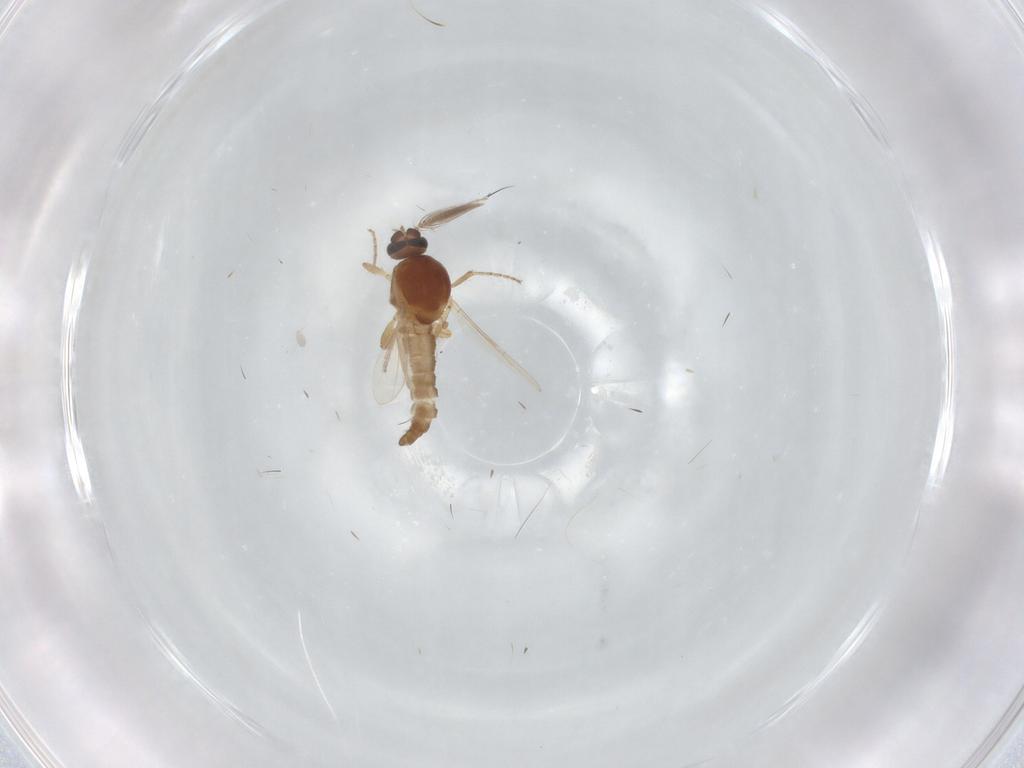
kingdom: Animalia
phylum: Arthropoda
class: Insecta
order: Diptera
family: Ceratopogonidae
